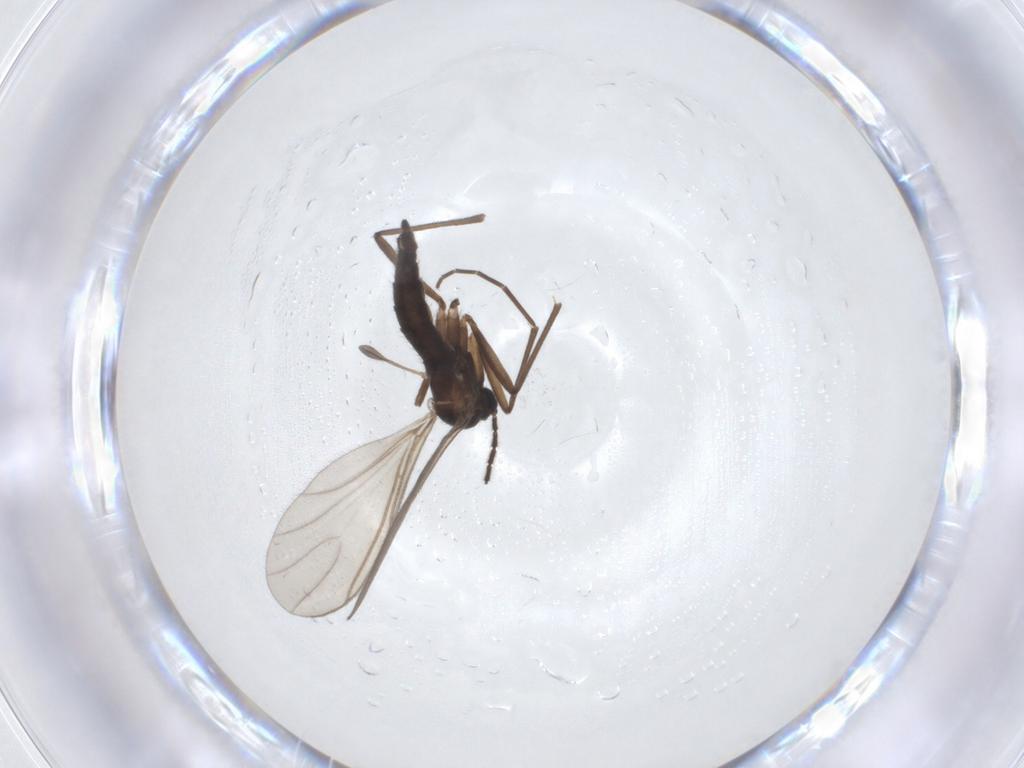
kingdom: Animalia
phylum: Arthropoda
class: Insecta
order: Diptera
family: Sciaridae
